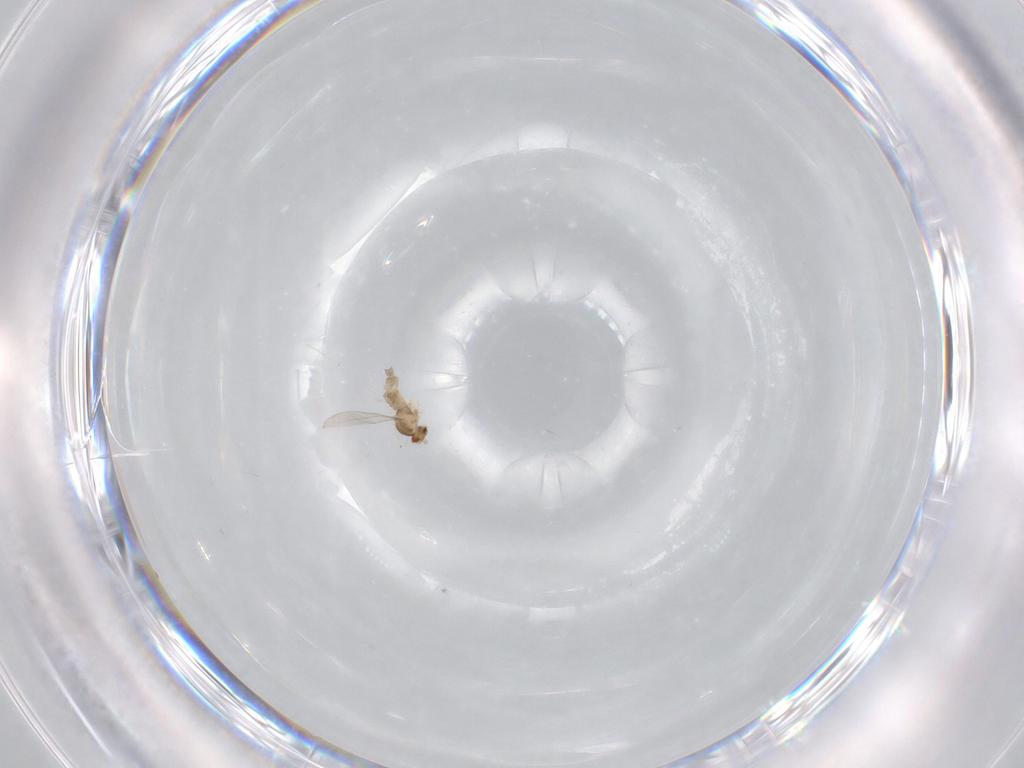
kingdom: Animalia
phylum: Arthropoda
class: Insecta
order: Diptera
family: Cecidomyiidae
